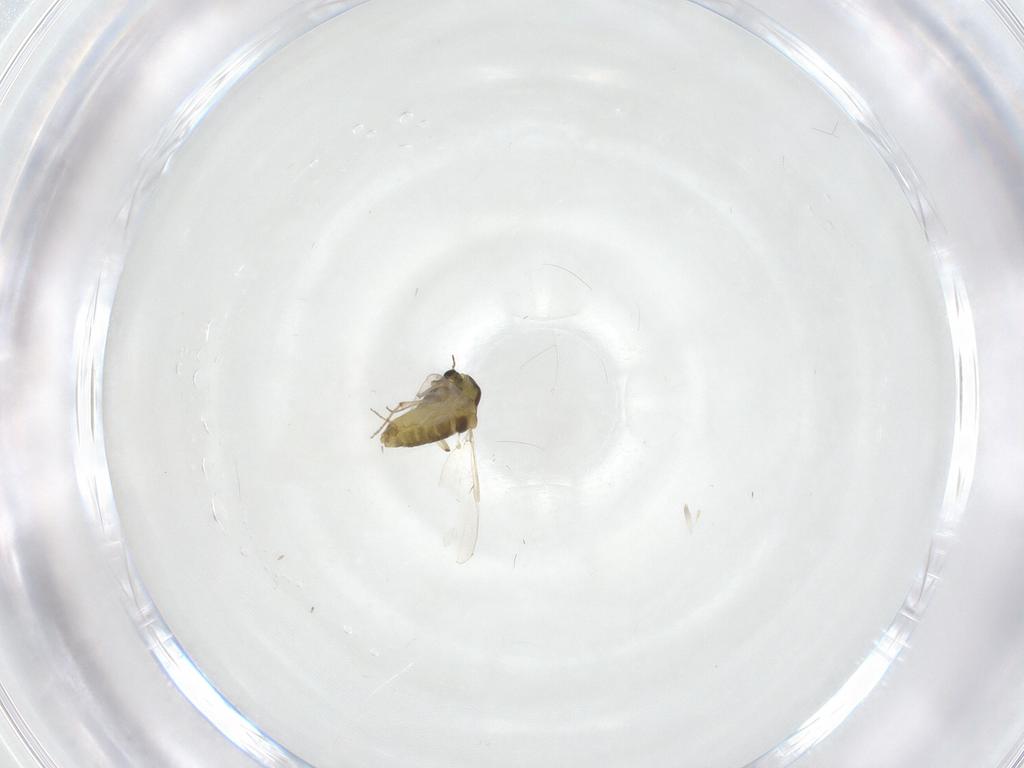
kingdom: Animalia
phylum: Arthropoda
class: Insecta
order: Diptera
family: Chironomidae
